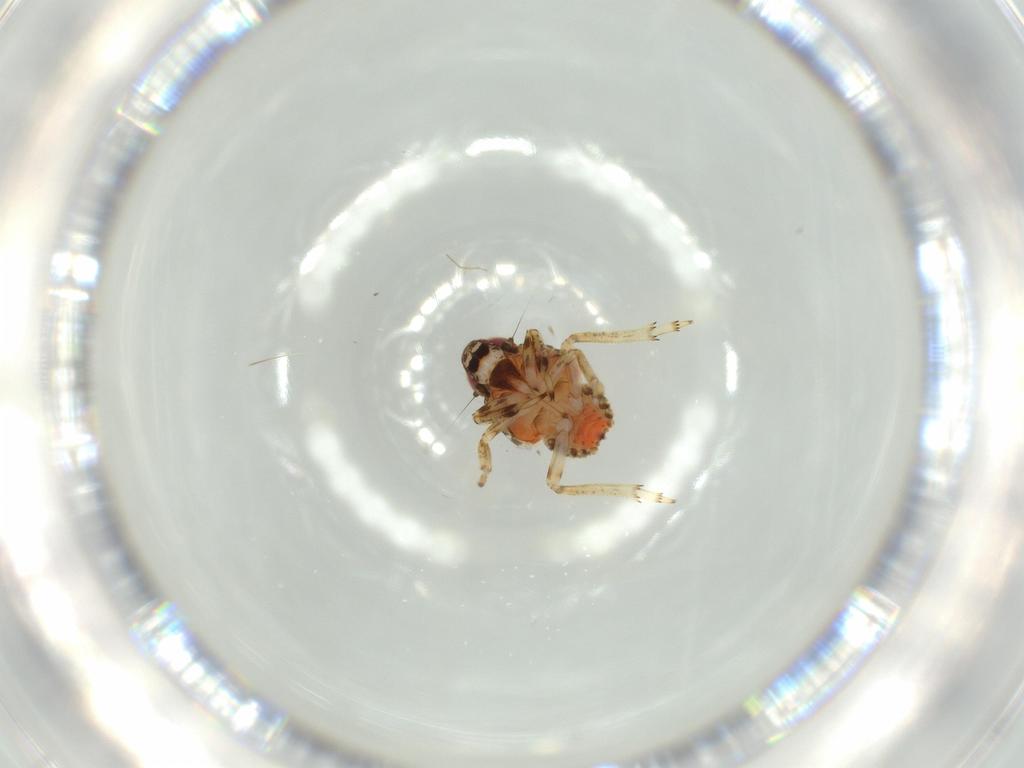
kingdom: Animalia
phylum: Arthropoda
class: Insecta
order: Hemiptera
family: Issidae
